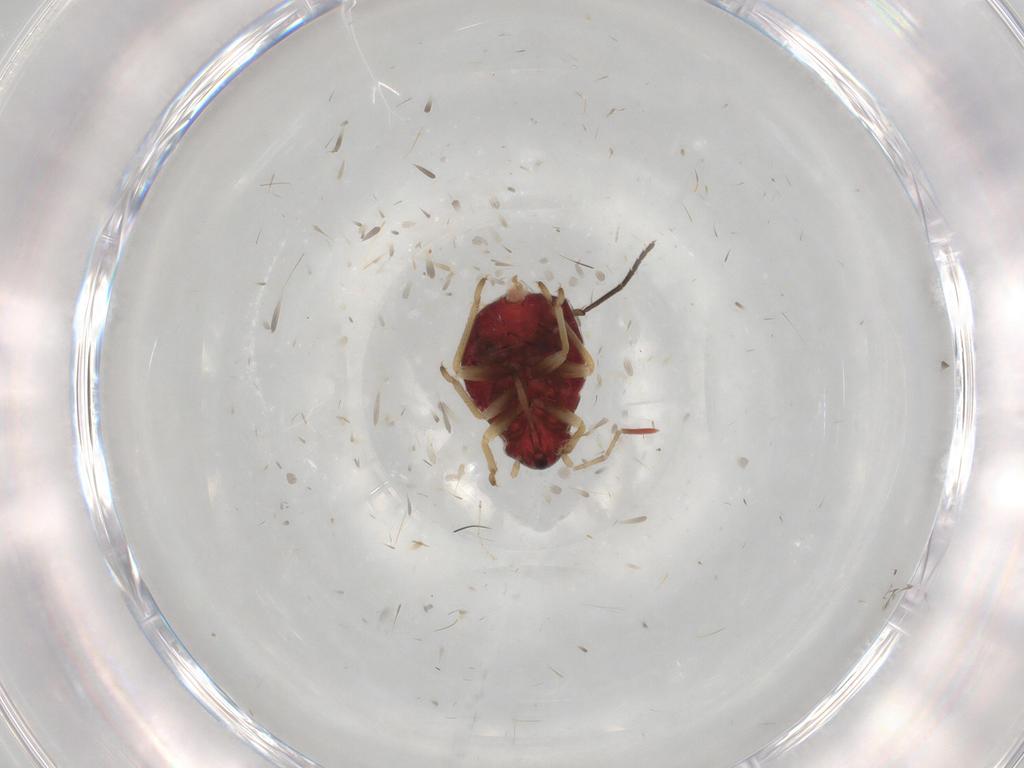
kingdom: Animalia
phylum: Arthropoda
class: Insecta
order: Hemiptera
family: Miridae
